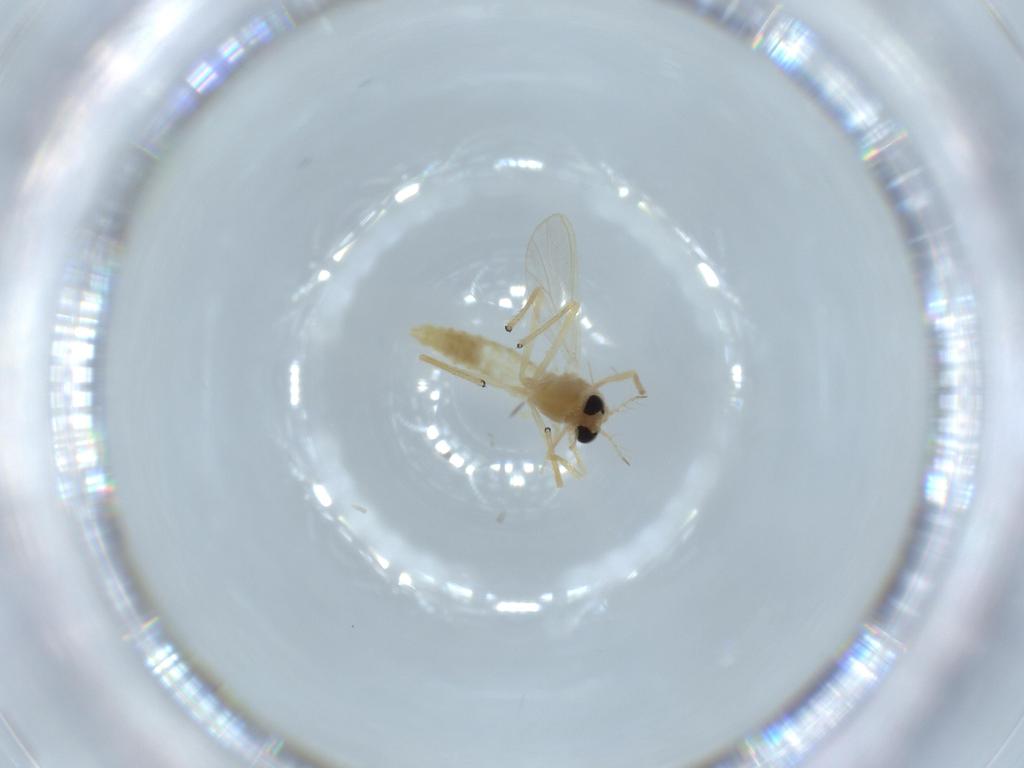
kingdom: Animalia
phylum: Arthropoda
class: Insecta
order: Diptera
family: Chironomidae
